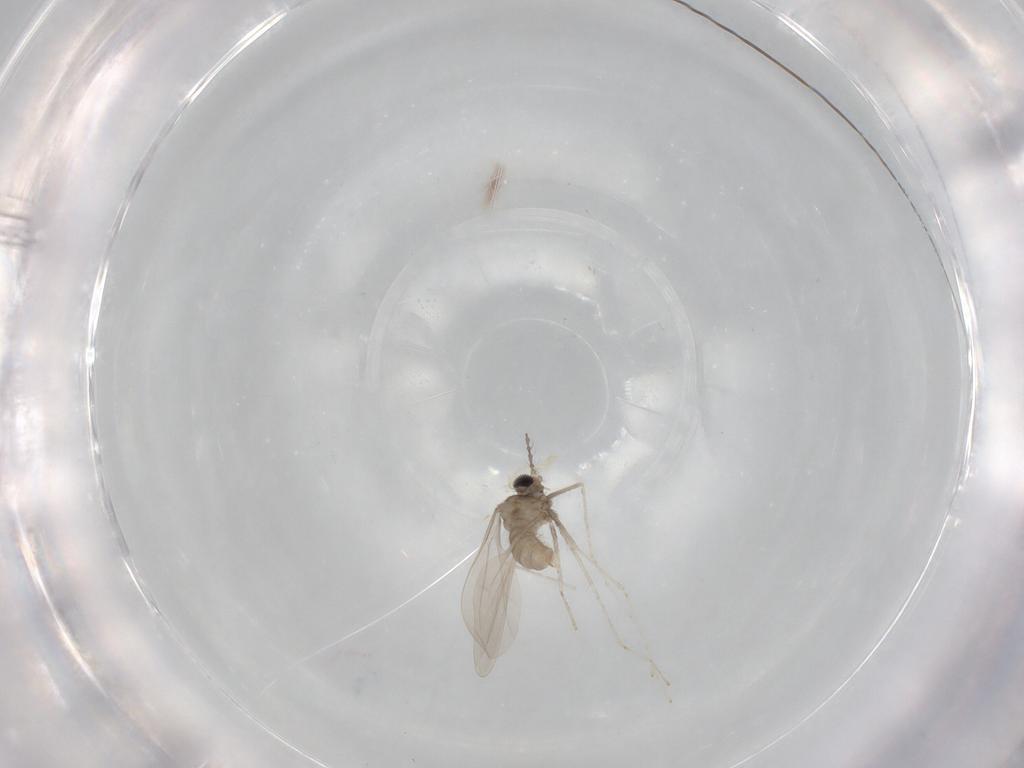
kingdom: Animalia
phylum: Arthropoda
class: Insecta
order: Diptera
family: Cecidomyiidae
